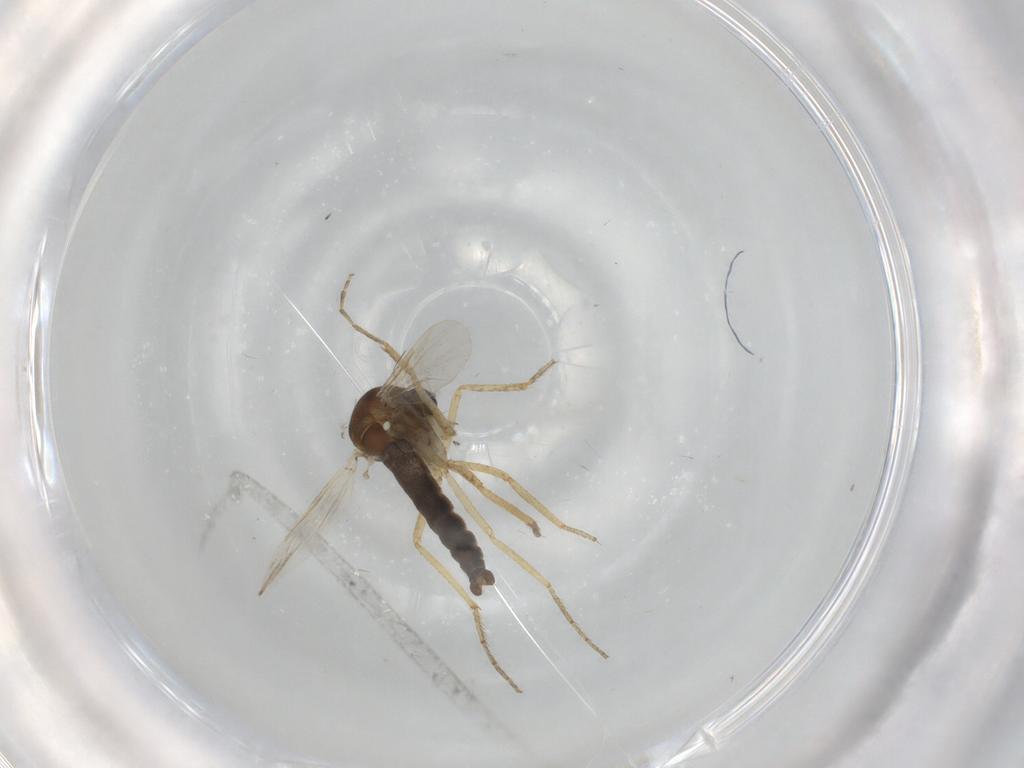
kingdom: Animalia
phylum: Arthropoda
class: Insecta
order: Diptera
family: Ceratopogonidae
